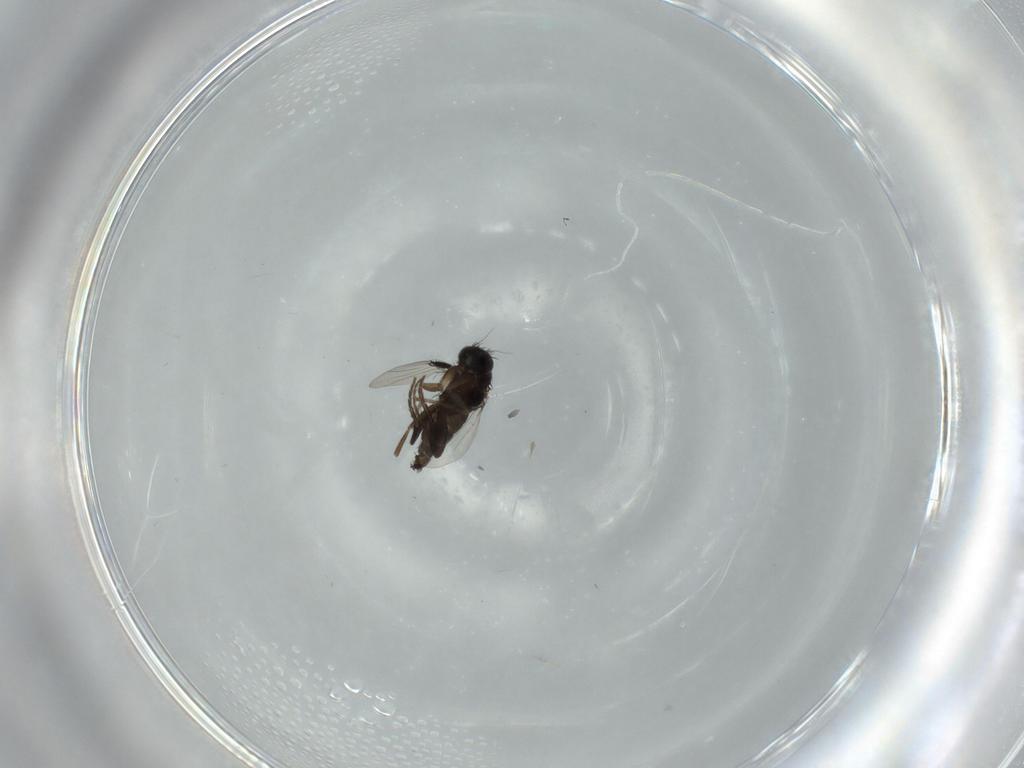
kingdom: Animalia
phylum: Arthropoda
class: Insecta
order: Diptera
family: Phoridae
